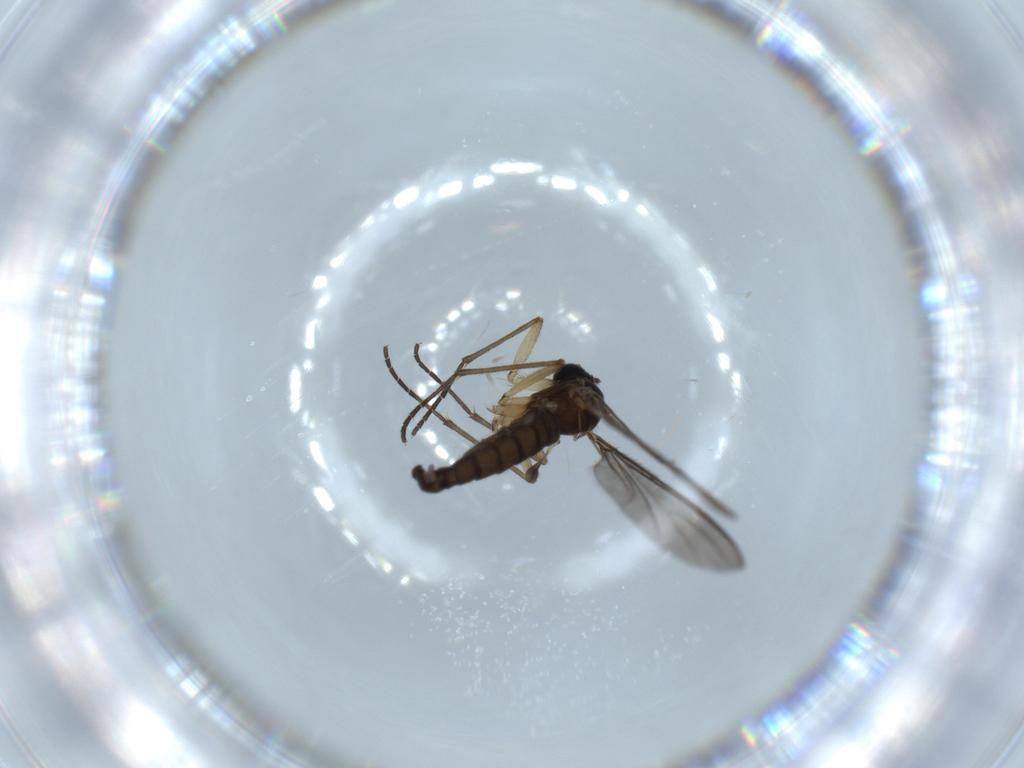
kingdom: Animalia
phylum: Arthropoda
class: Insecta
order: Diptera
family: Sciaridae
